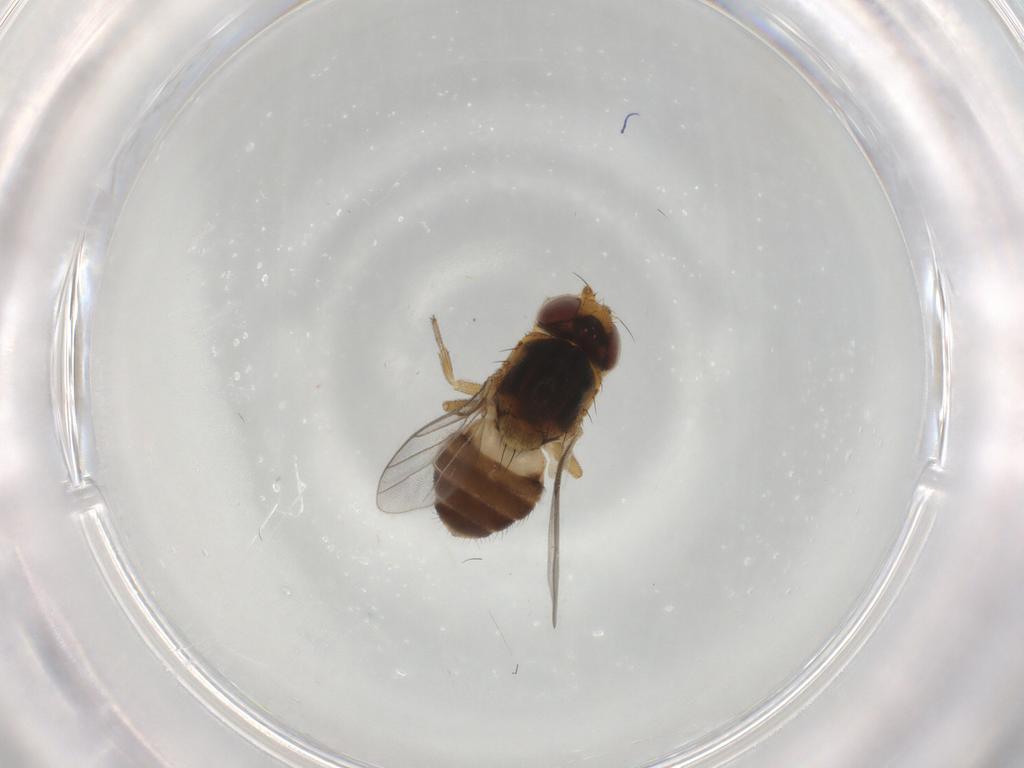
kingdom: Animalia
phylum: Arthropoda
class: Insecta
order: Diptera
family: Chloropidae
